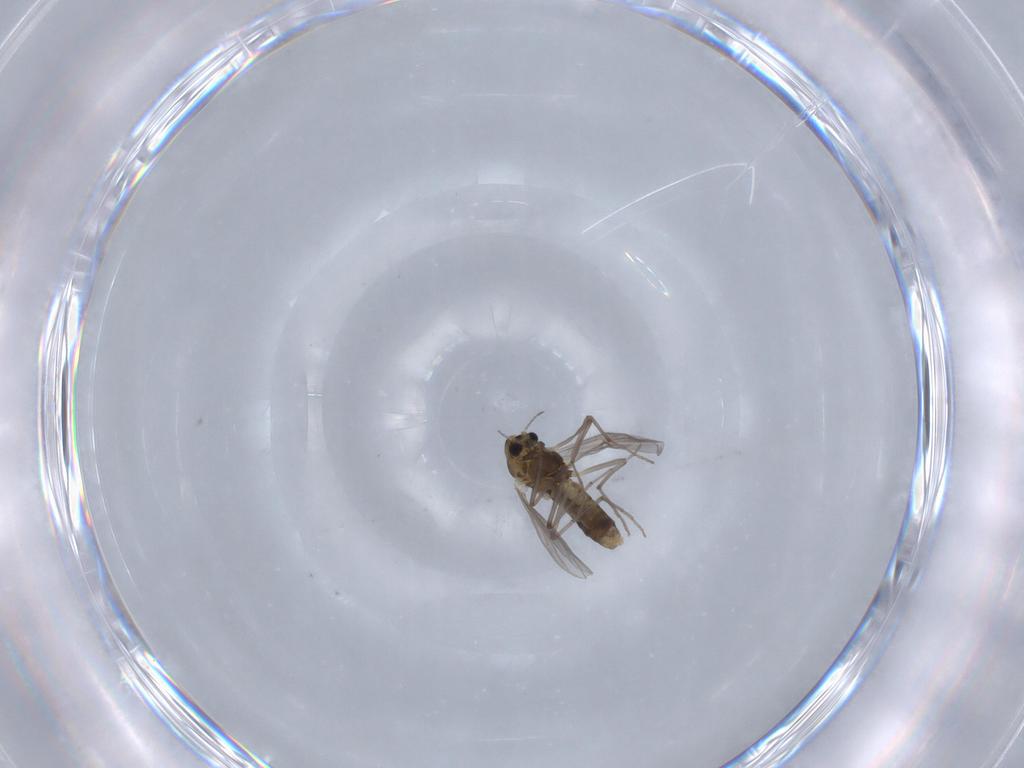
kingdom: Animalia
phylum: Arthropoda
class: Insecta
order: Diptera
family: Chironomidae
